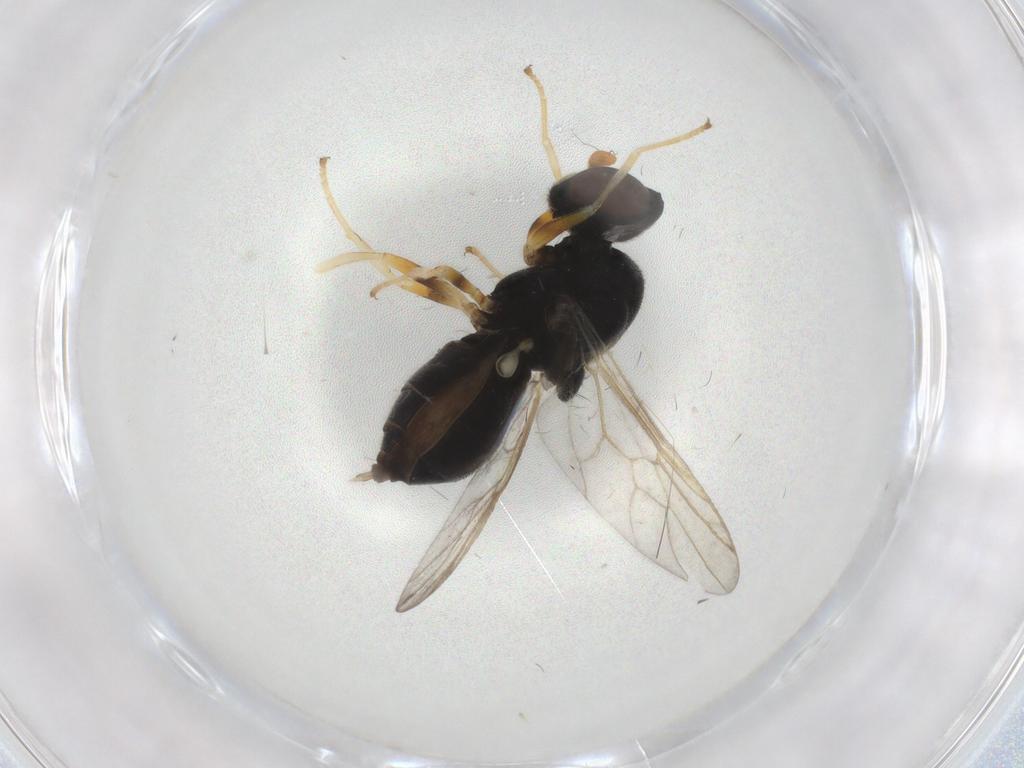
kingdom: Animalia
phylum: Arthropoda
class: Insecta
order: Diptera
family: Stratiomyidae
